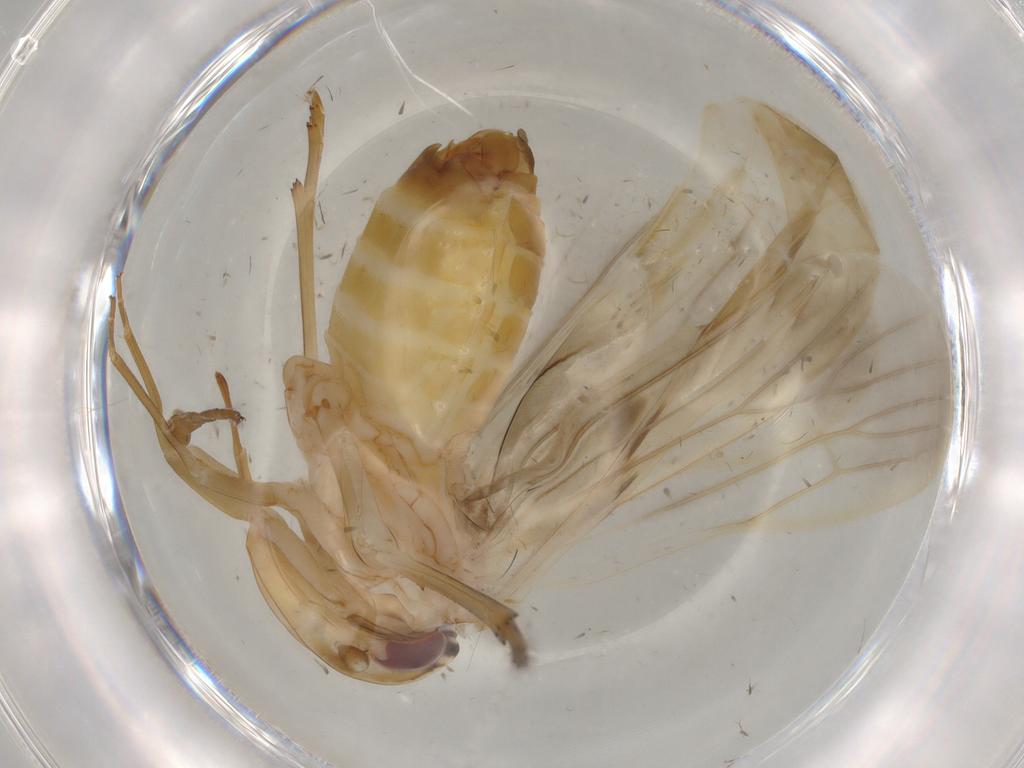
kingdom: Animalia
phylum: Arthropoda
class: Insecta
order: Hemiptera
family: Achilidae
